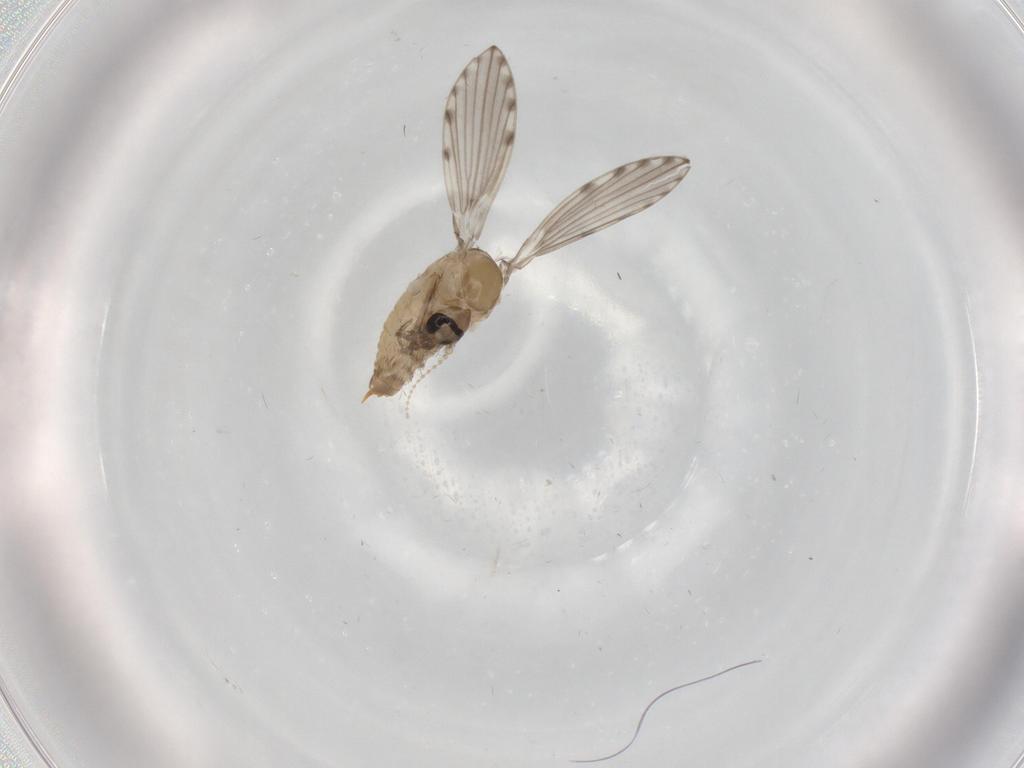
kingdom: Animalia
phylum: Arthropoda
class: Insecta
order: Diptera
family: Psychodidae
